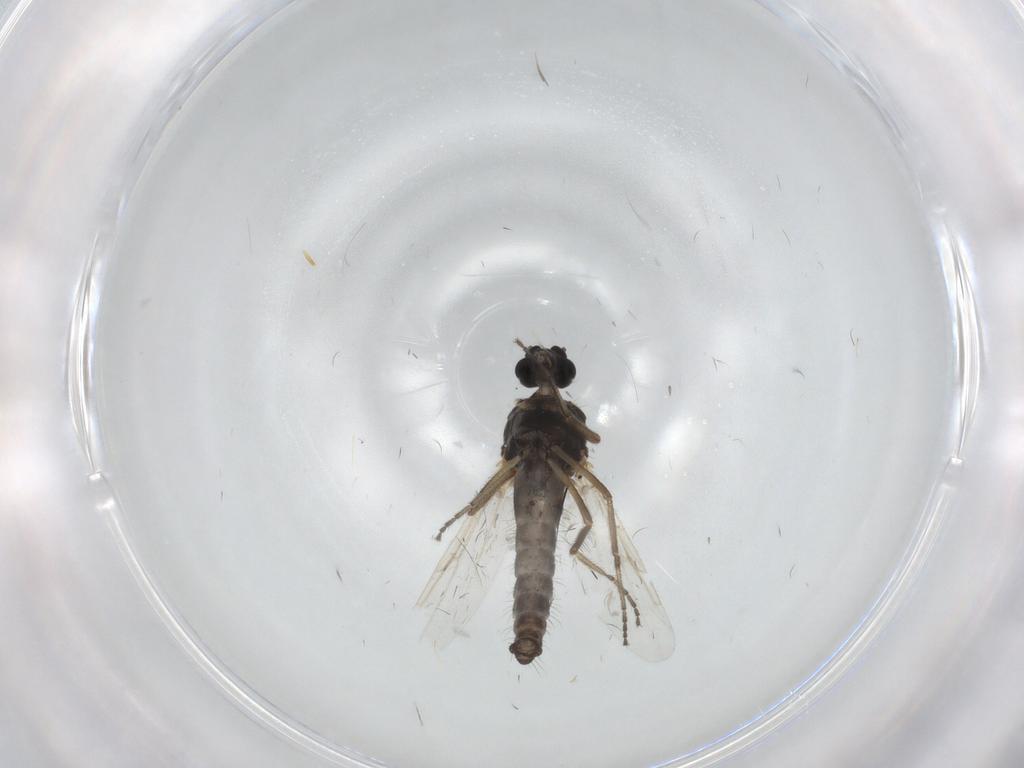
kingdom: Animalia
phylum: Arthropoda
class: Insecta
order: Diptera
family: Ceratopogonidae
